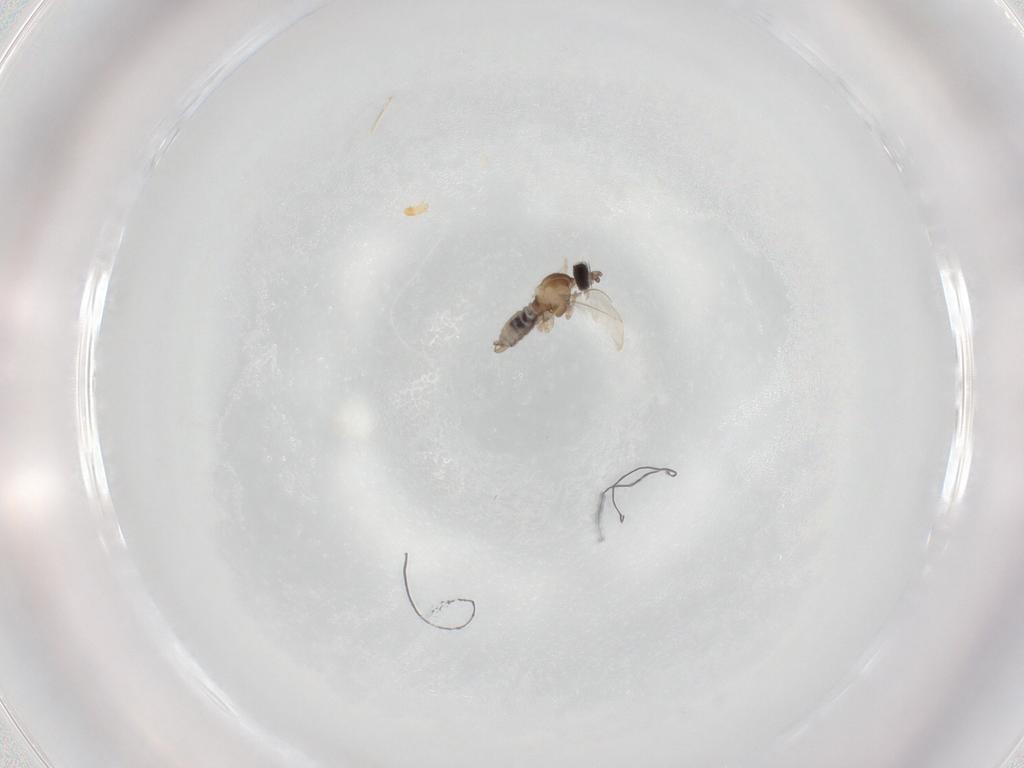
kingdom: Animalia
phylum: Arthropoda
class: Insecta
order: Diptera
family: Cecidomyiidae
